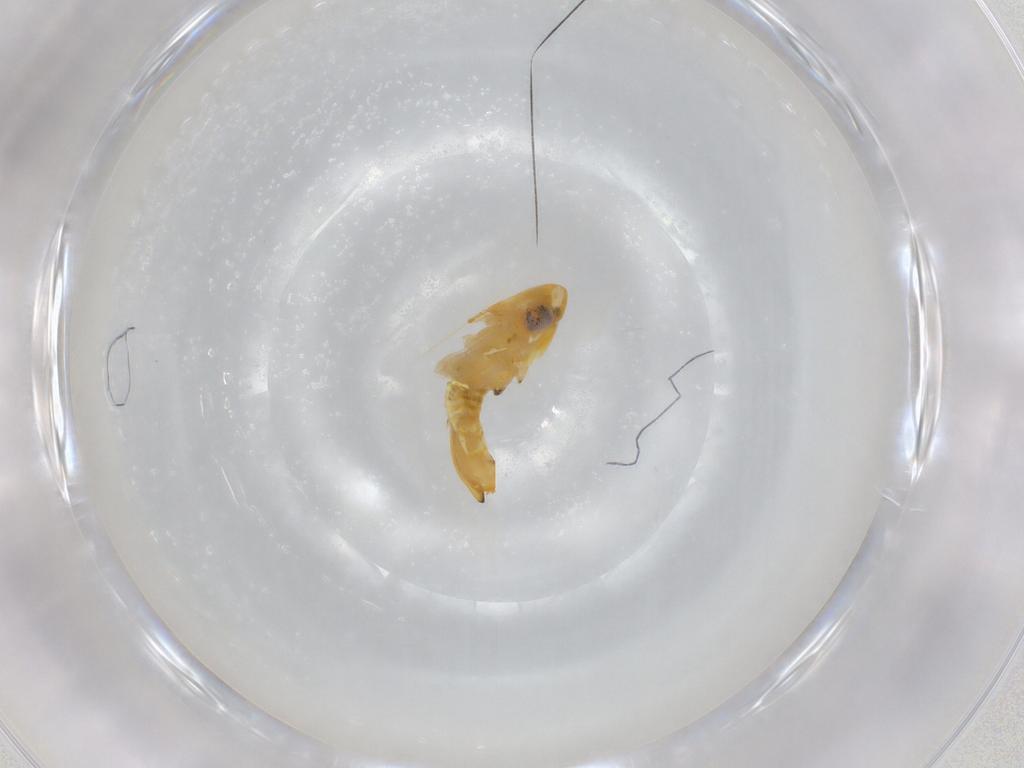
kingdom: Animalia
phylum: Arthropoda
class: Insecta
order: Hemiptera
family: Cicadellidae
